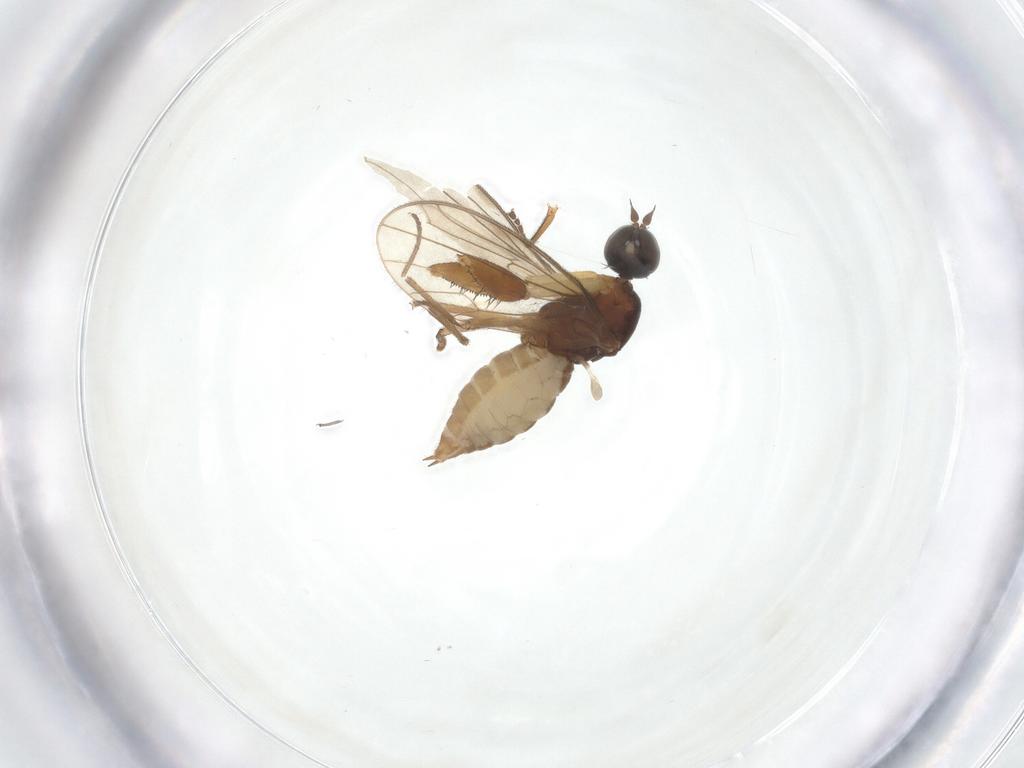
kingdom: Animalia
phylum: Arthropoda
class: Insecta
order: Diptera
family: Empididae
